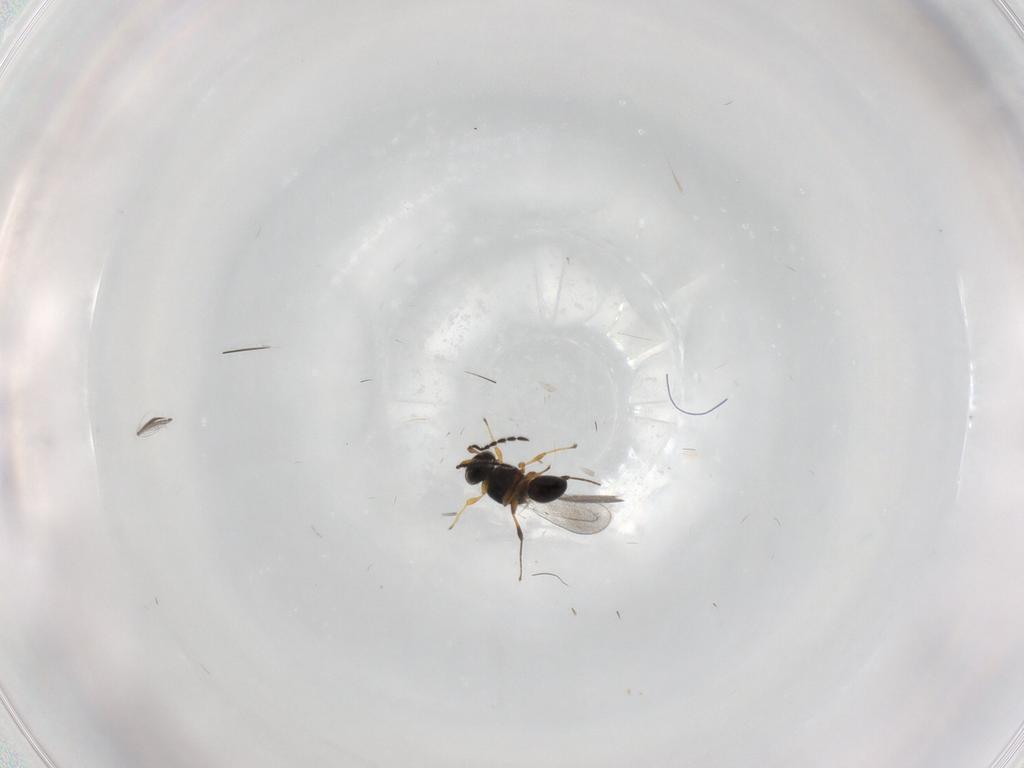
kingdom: Animalia
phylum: Arthropoda
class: Insecta
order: Hymenoptera
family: Platygastridae
